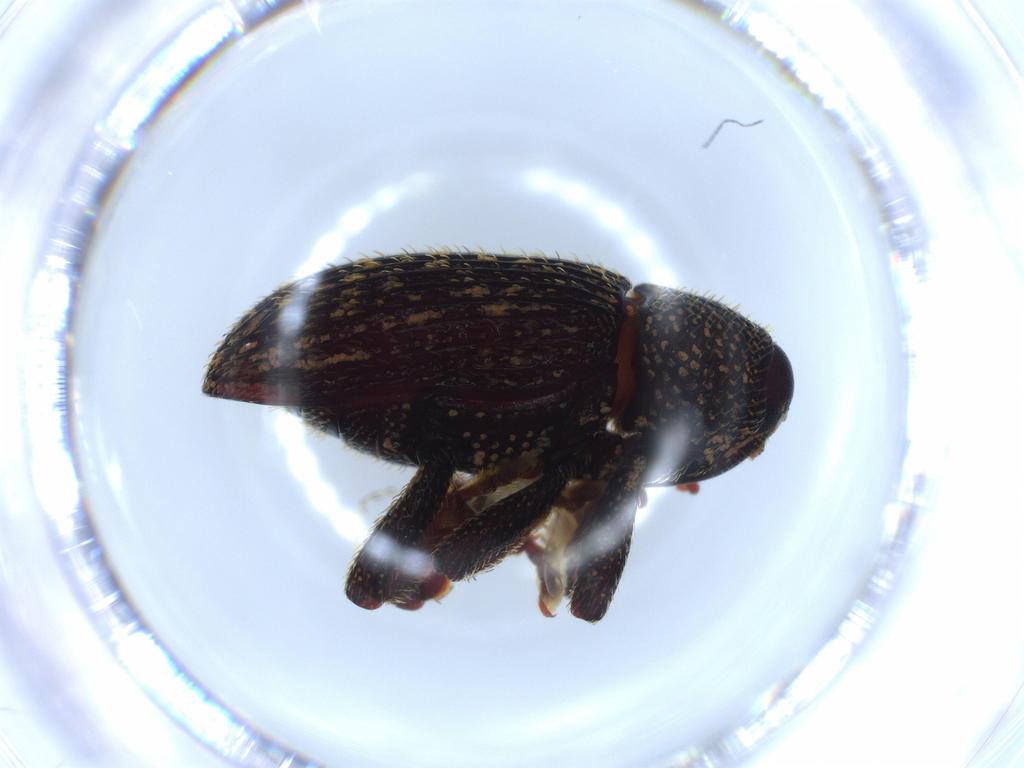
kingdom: Animalia
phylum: Arthropoda
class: Insecta
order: Coleoptera
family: Curculionidae
